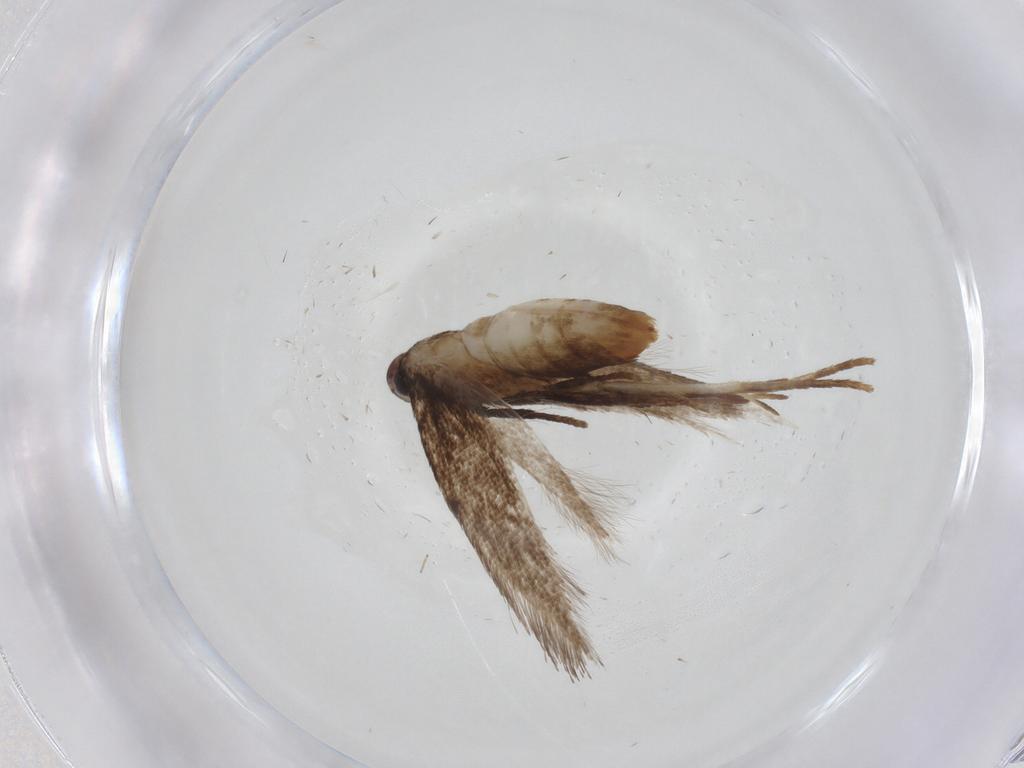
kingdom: Animalia
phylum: Arthropoda
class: Insecta
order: Lepidoptera
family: Gelechiidae
